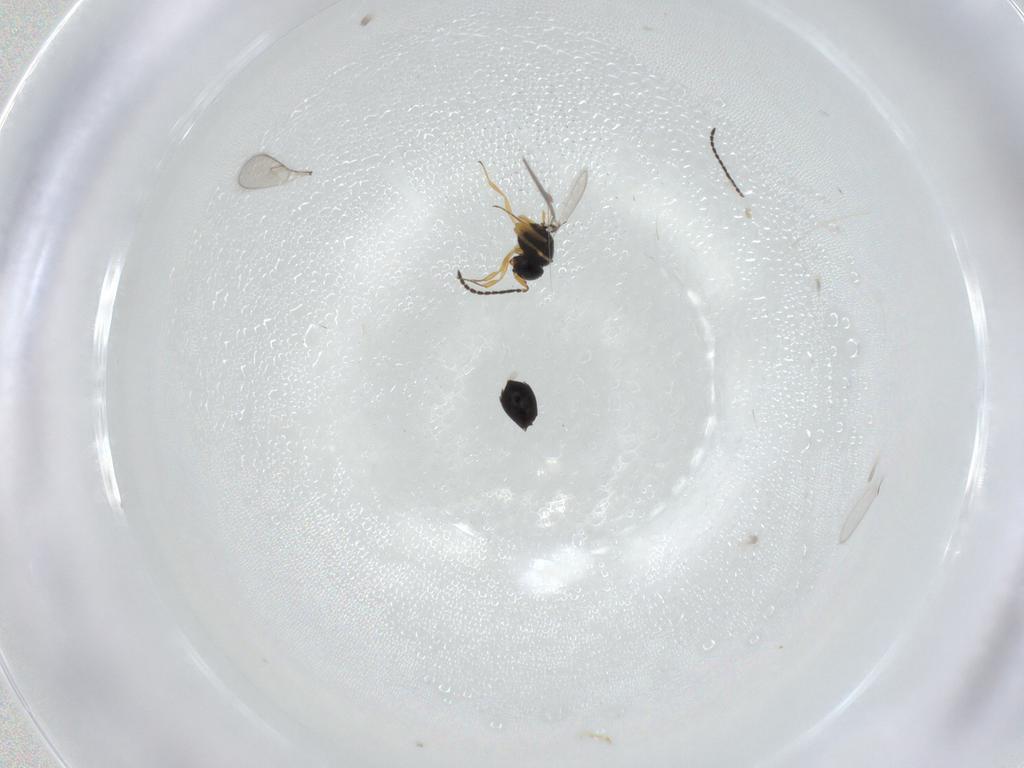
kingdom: Animalia
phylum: Arthropoda
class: Insecta
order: Hymenoptera
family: Scelionidae
